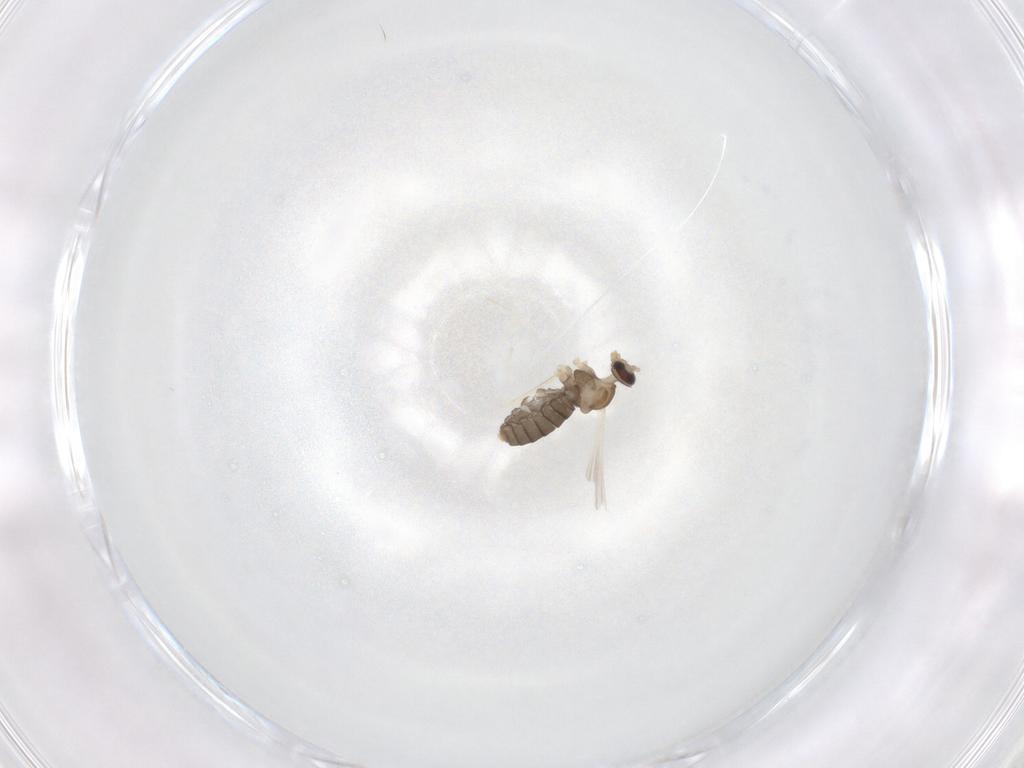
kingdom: Animalia
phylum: Arthropoda
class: Insecta
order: Diptera
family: Cecidomyiidae
